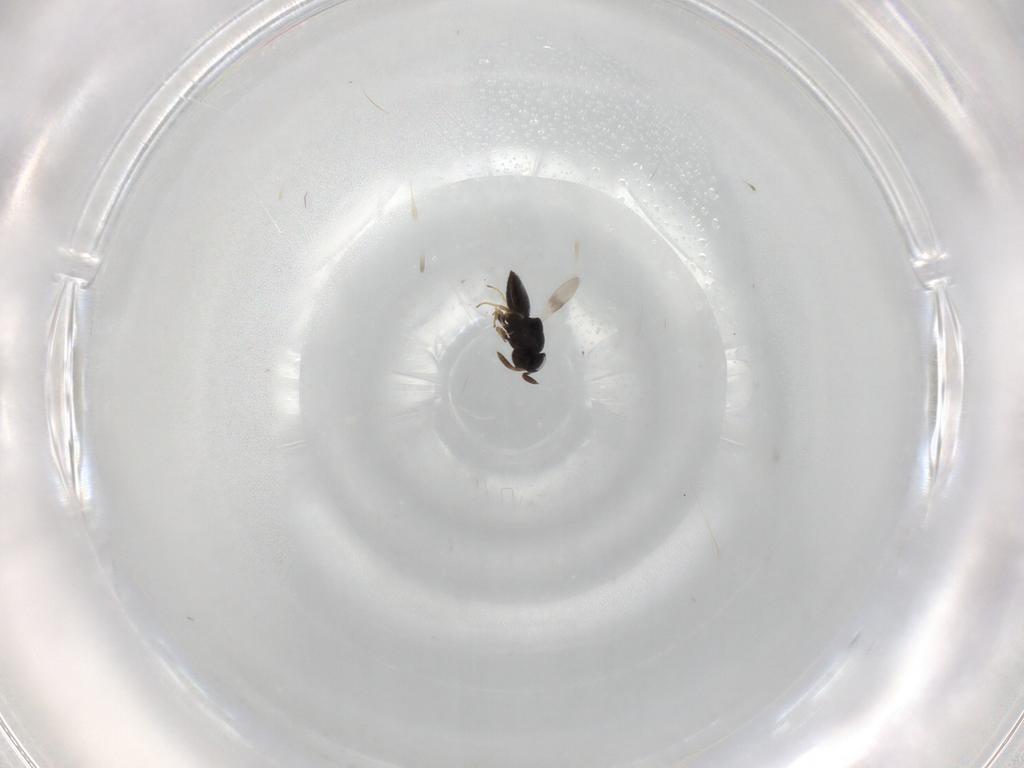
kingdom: Animalia
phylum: Arthropoda
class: Insecta
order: Hymenoptera
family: Scelionidae
